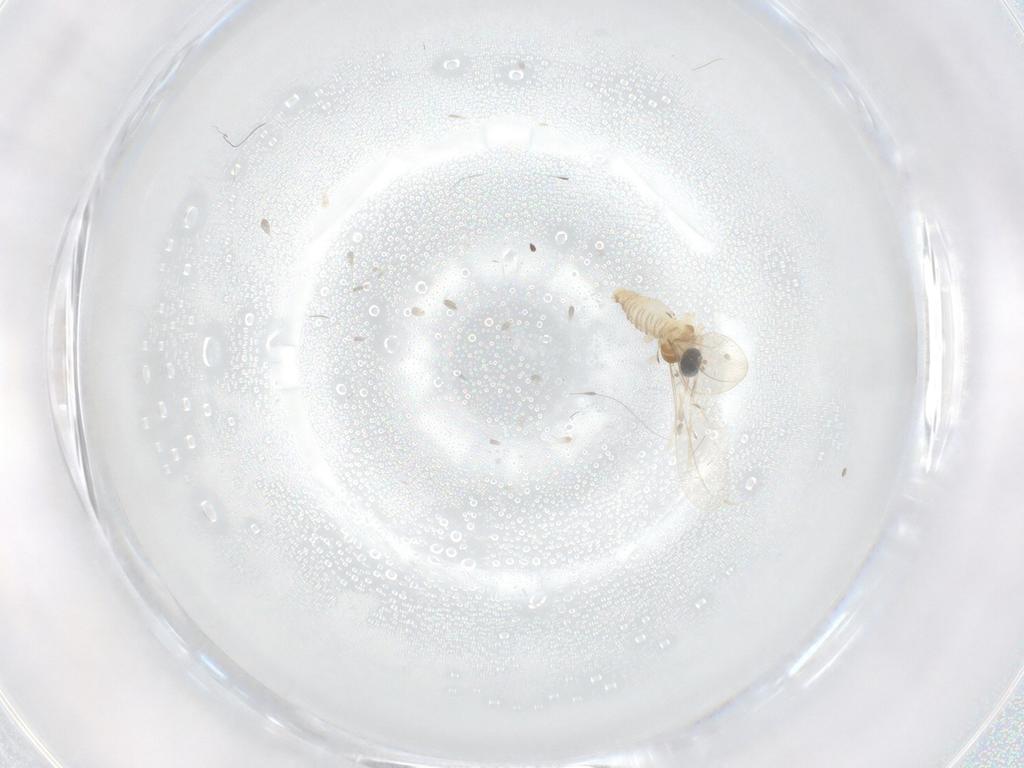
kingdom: Animalia
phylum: Arthropoda
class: Insecta
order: Diptera
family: Cecidomyiidae
